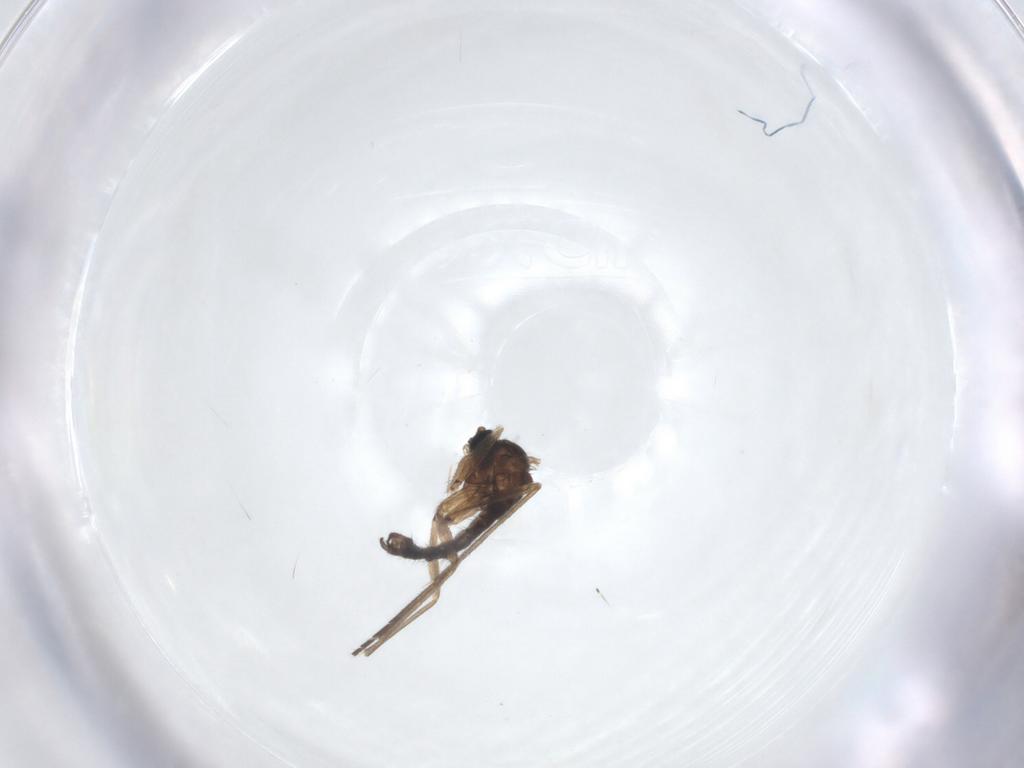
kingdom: Animalia
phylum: Arthropoda
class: Insecta
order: Diptera
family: Sciaridae
